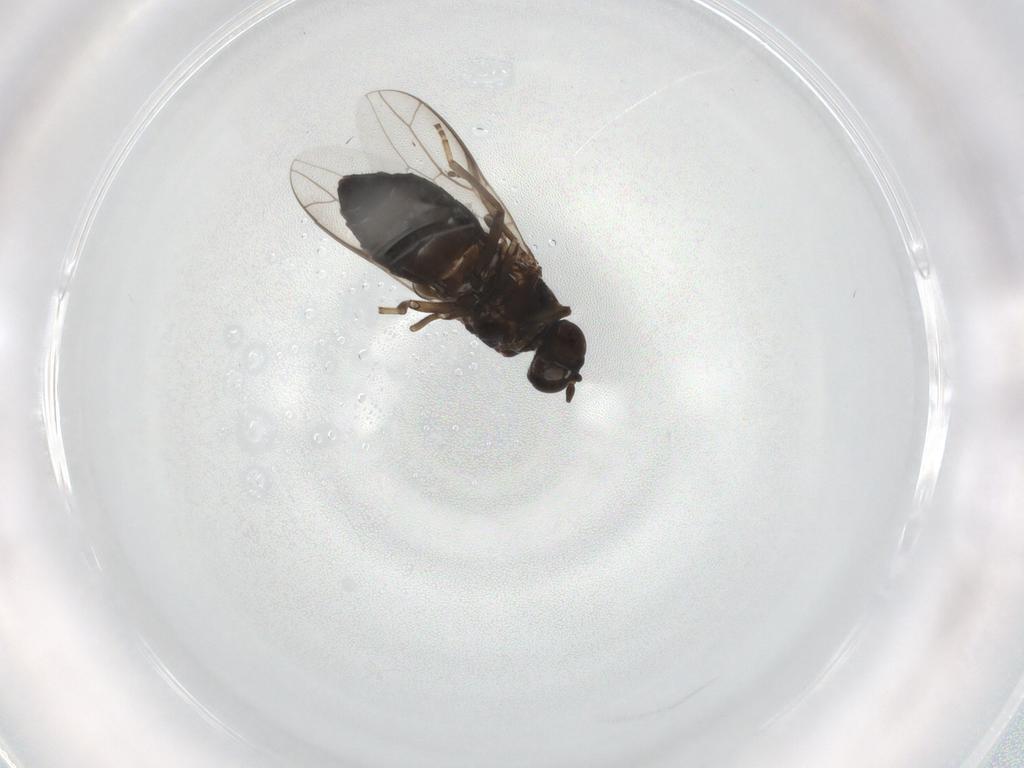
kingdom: Animalia
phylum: Arthropoda
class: Insecta
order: Diptera
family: Scenopinidae
